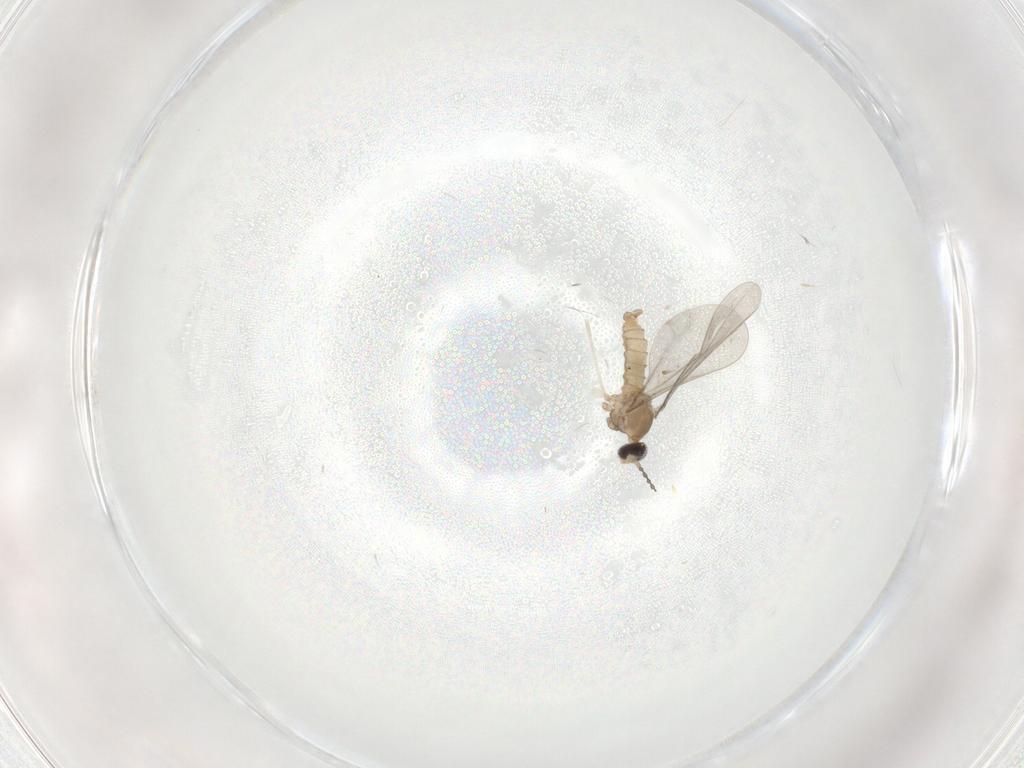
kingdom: Animalia
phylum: Arthropoda
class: Insecta
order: Diptera
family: Cecidomyiidae
